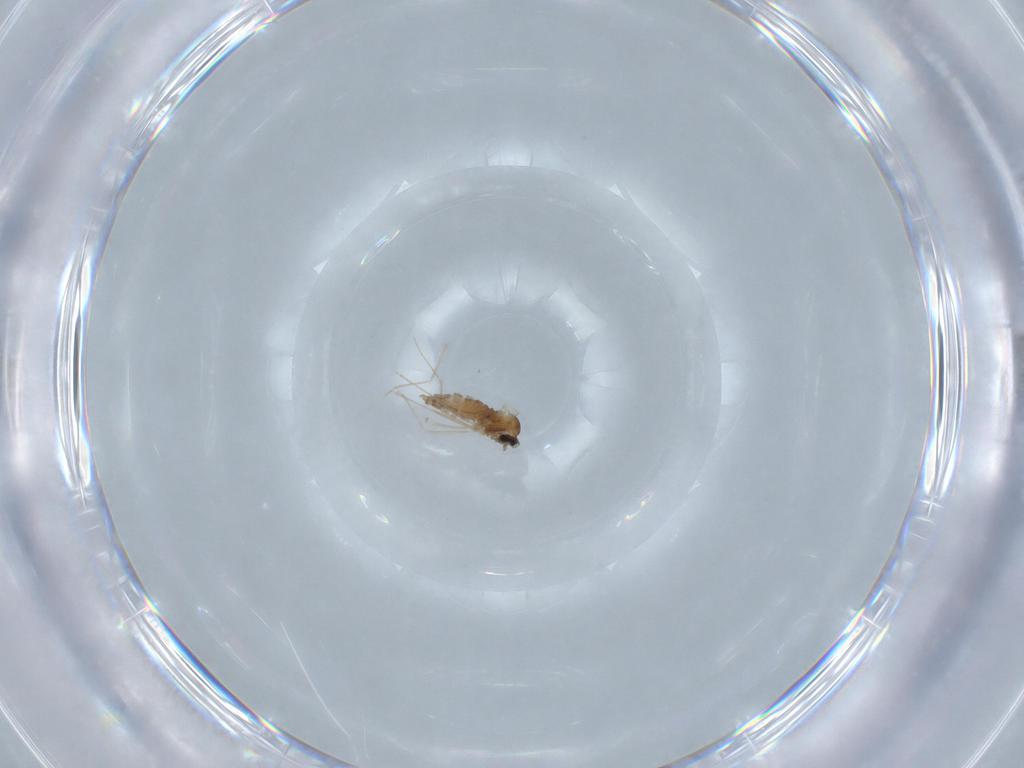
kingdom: Animalia
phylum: Arthropoda
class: Insecta
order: Diptera
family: Cecidomyiidae
